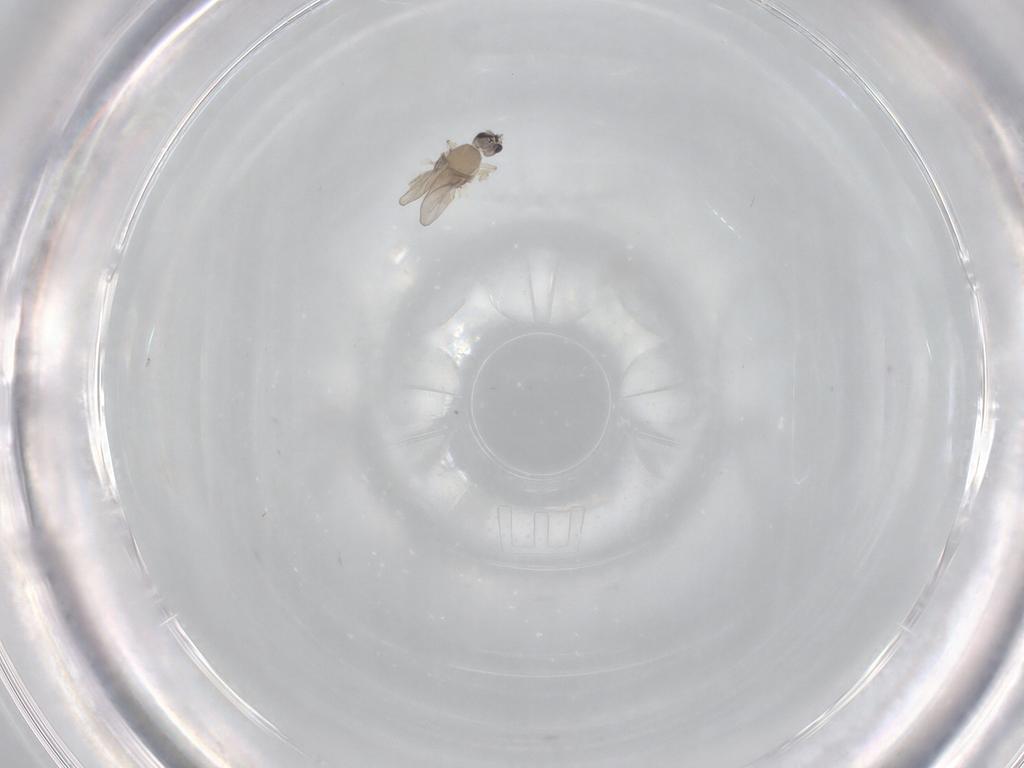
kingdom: Animalia
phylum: Arthropoda
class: Insecta
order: Diptera
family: Cecidomyiidae
